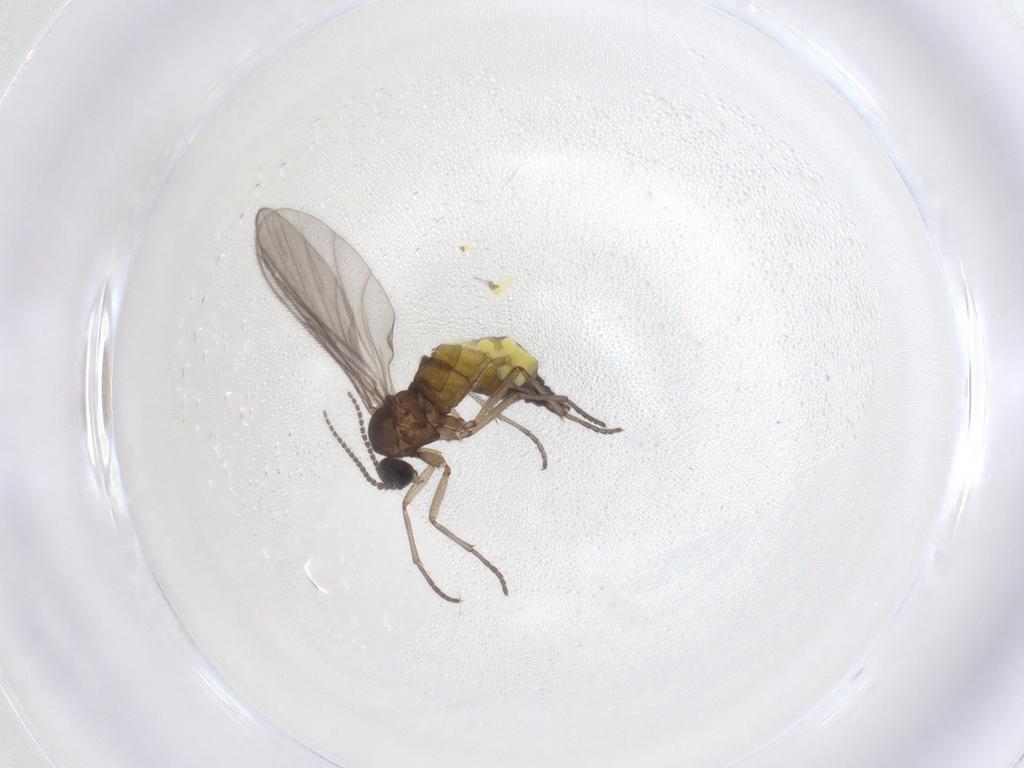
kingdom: Animalia
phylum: Arthropoda
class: Insecta
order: Diptera
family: Sciaridae
